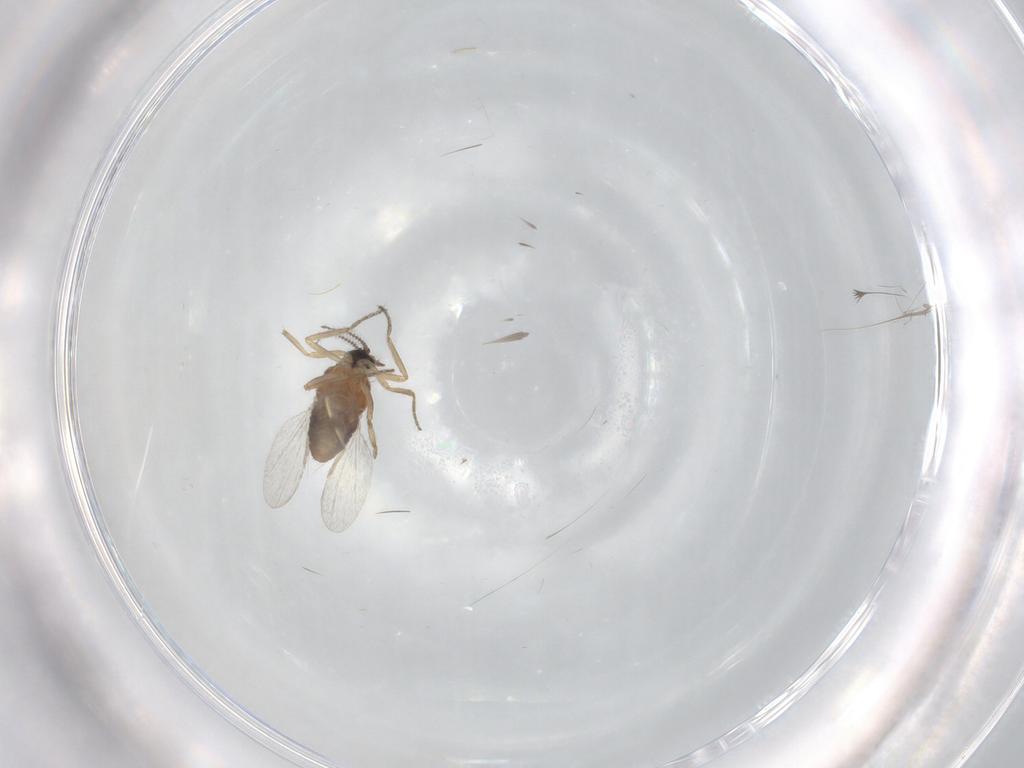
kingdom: Animalia
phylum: Arthropoda
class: Insecta
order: Diptera
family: Ceratopogonidae
